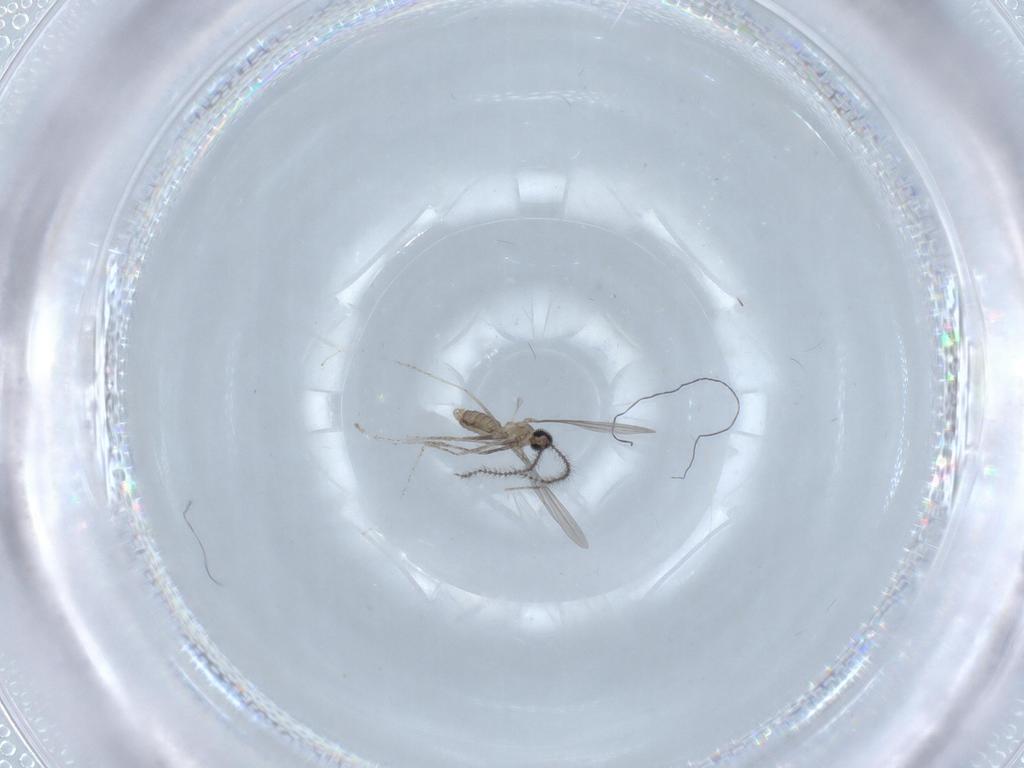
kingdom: Animalia
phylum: Arthropoda
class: Insecta
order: Diptera
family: Cecidomyiidae
